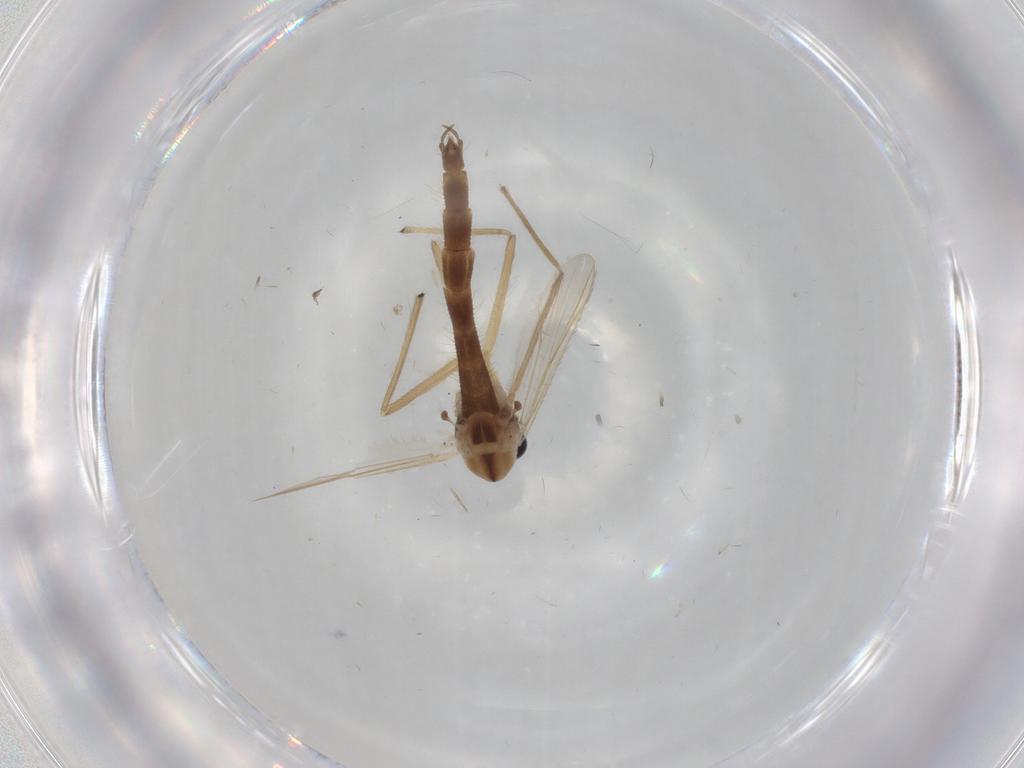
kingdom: Animalia
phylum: Arthropoda
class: Insecta
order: Diptera
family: Chironomidae
